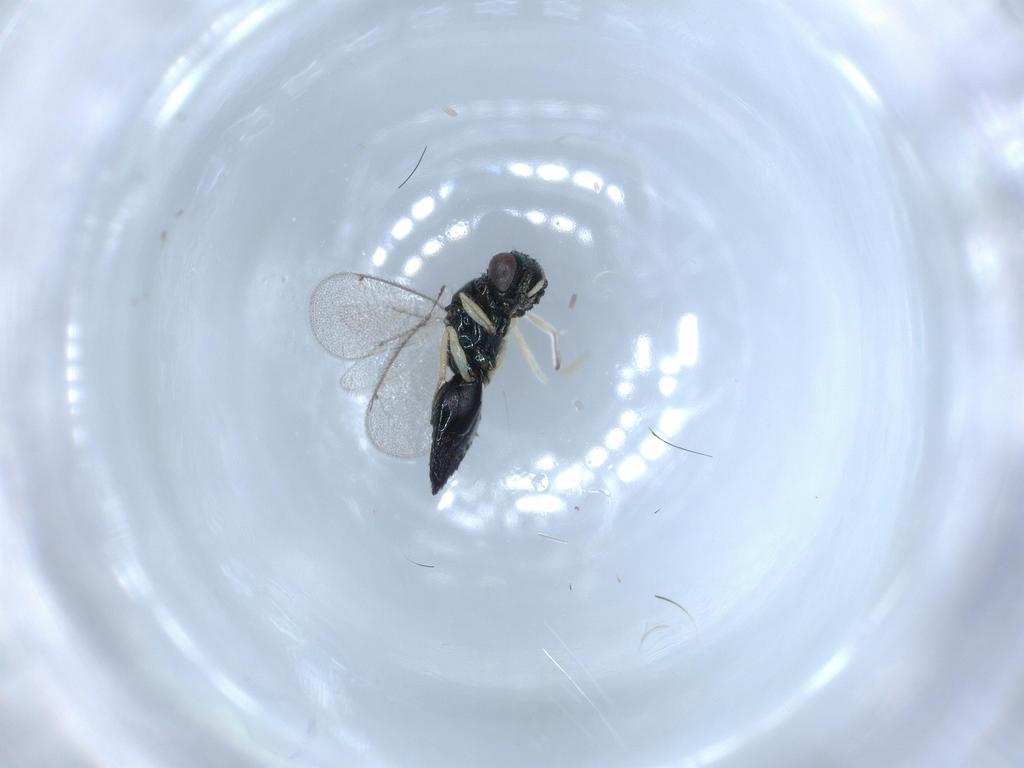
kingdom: Animalia
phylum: Arthropoda
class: Insecta
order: Hymenoptera
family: Eulophidae
